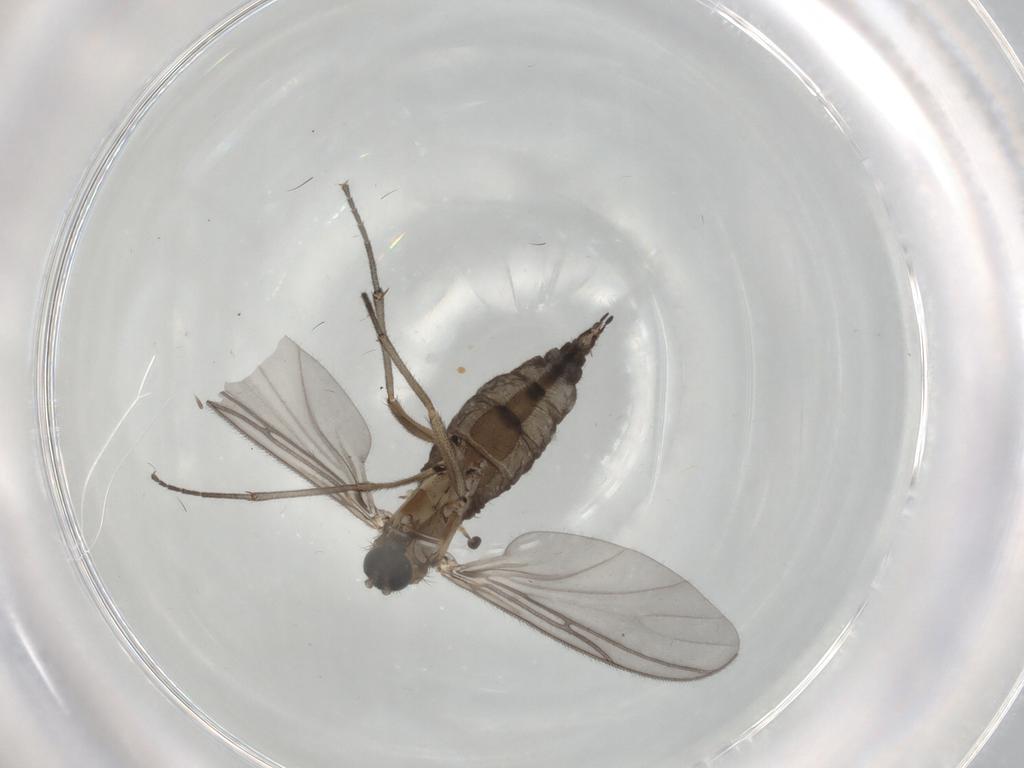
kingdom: Animalia
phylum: Arthropoda
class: Insecta
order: Diptera
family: Sciaridae
